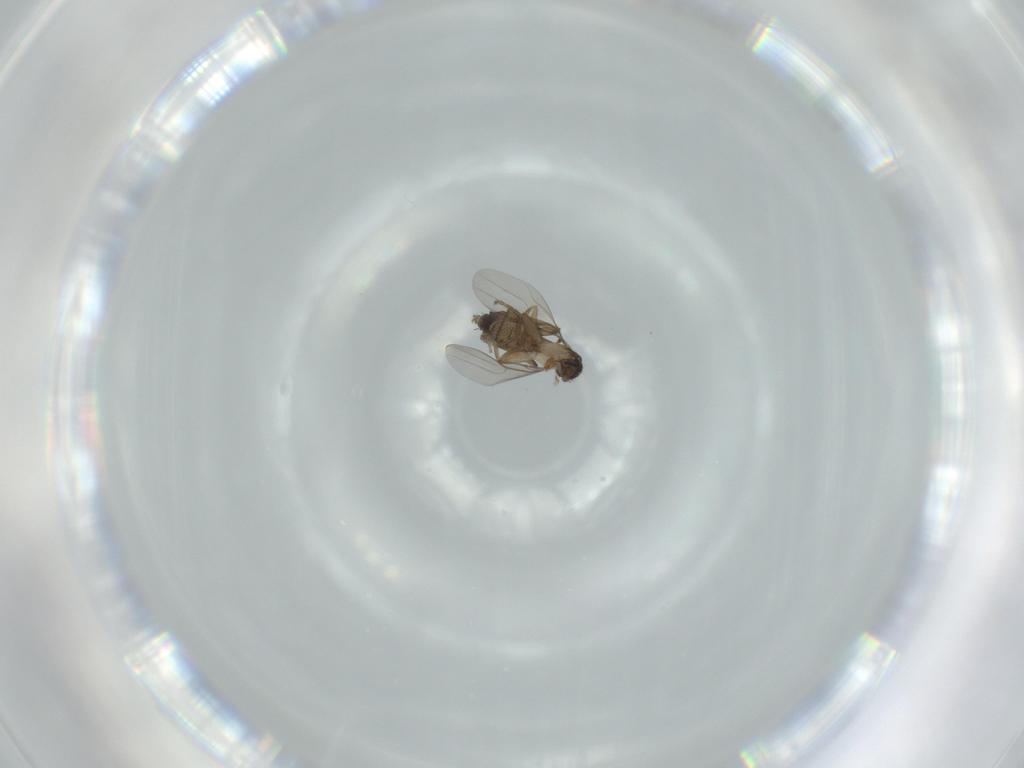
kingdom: Animalia
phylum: Arthropoda
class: Insecta
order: Diptera
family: Phoridae
